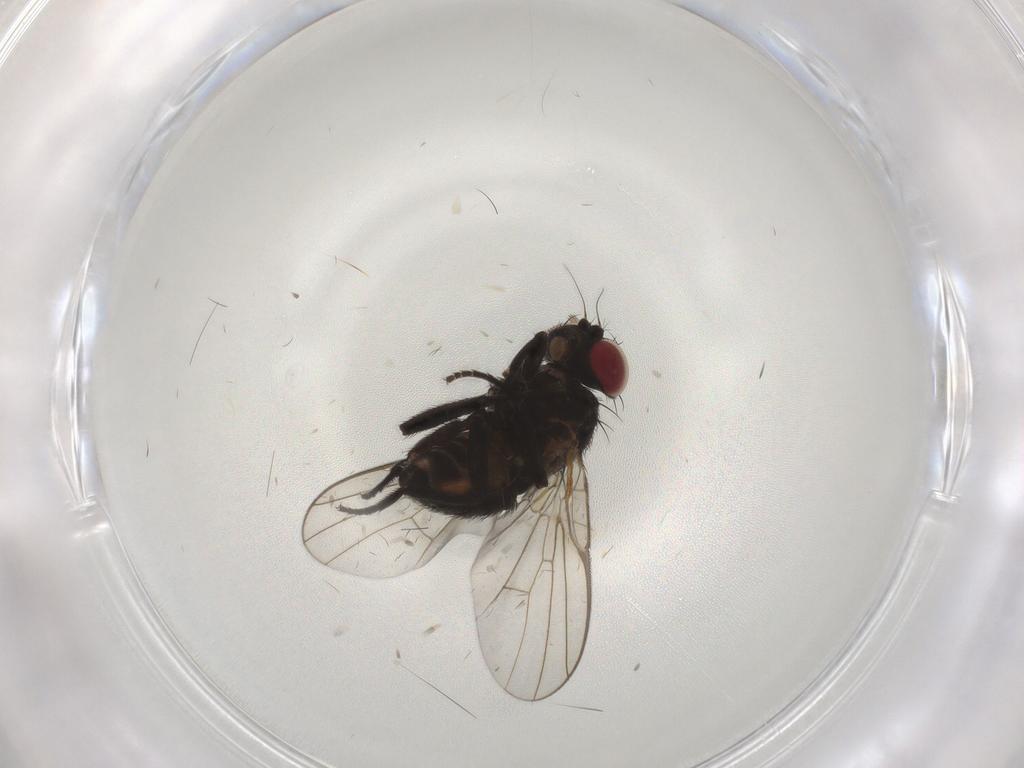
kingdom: Animalia
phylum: Arthropoda
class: Insecta
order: Diptera
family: Agromyzidae
